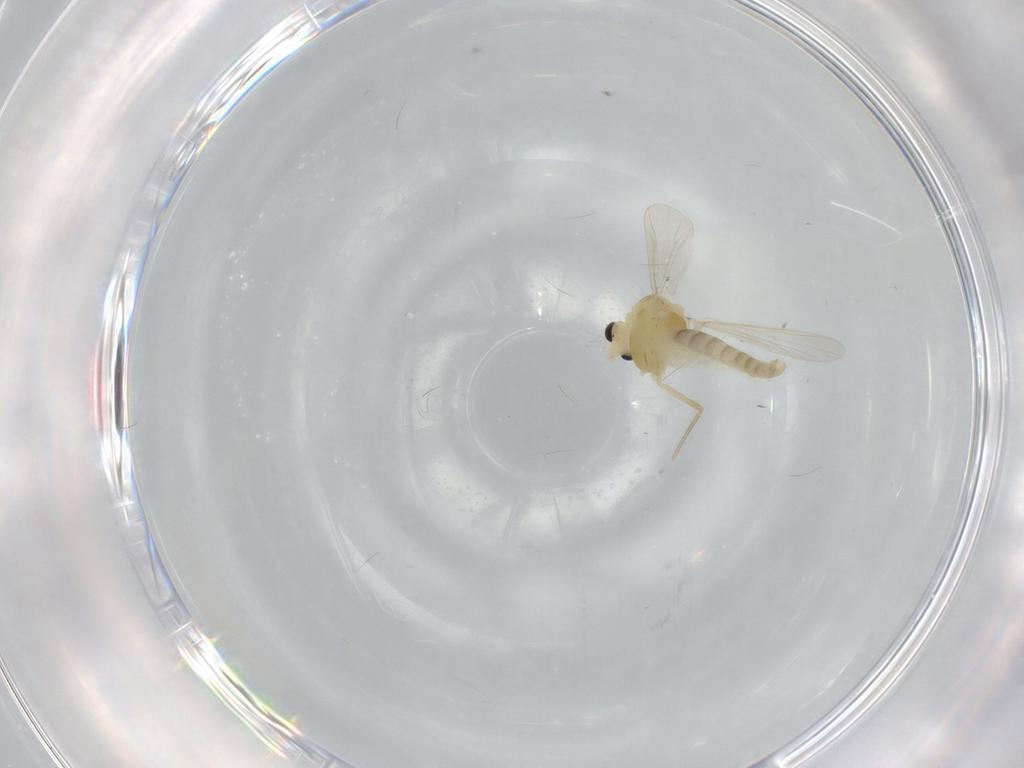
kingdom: Animalia
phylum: Arthropoda
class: Insecta
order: Diptera
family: Chironomidae
